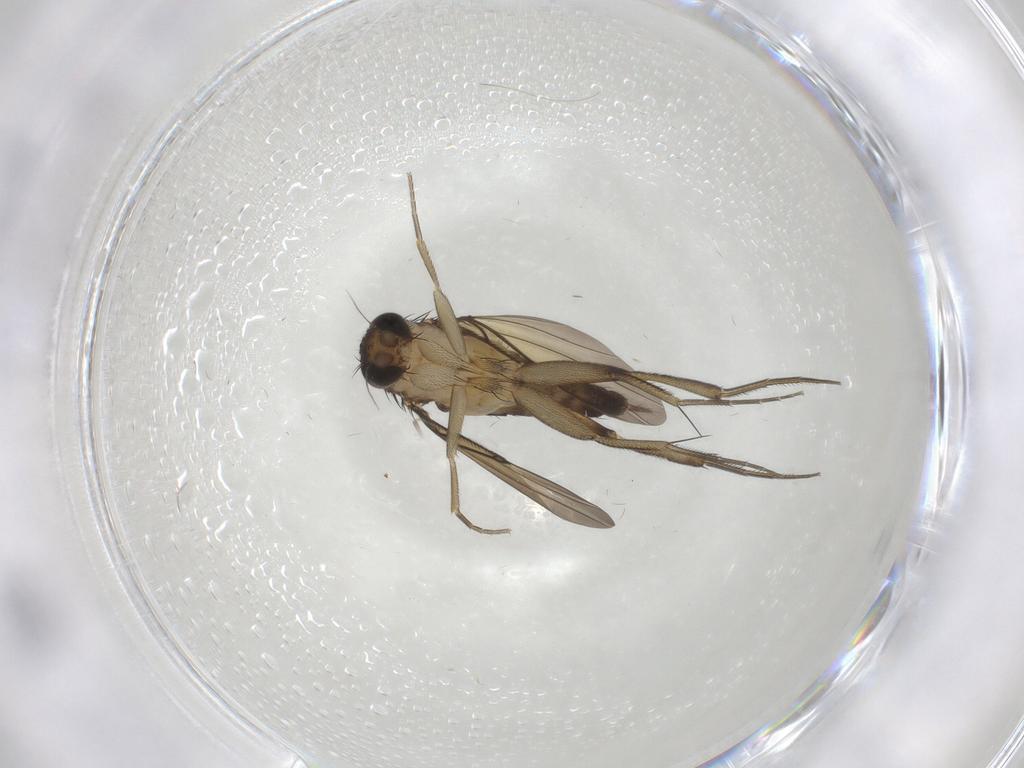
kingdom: Animalia
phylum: Arthropoda
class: Insecta
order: Diptera
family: Phoridae
